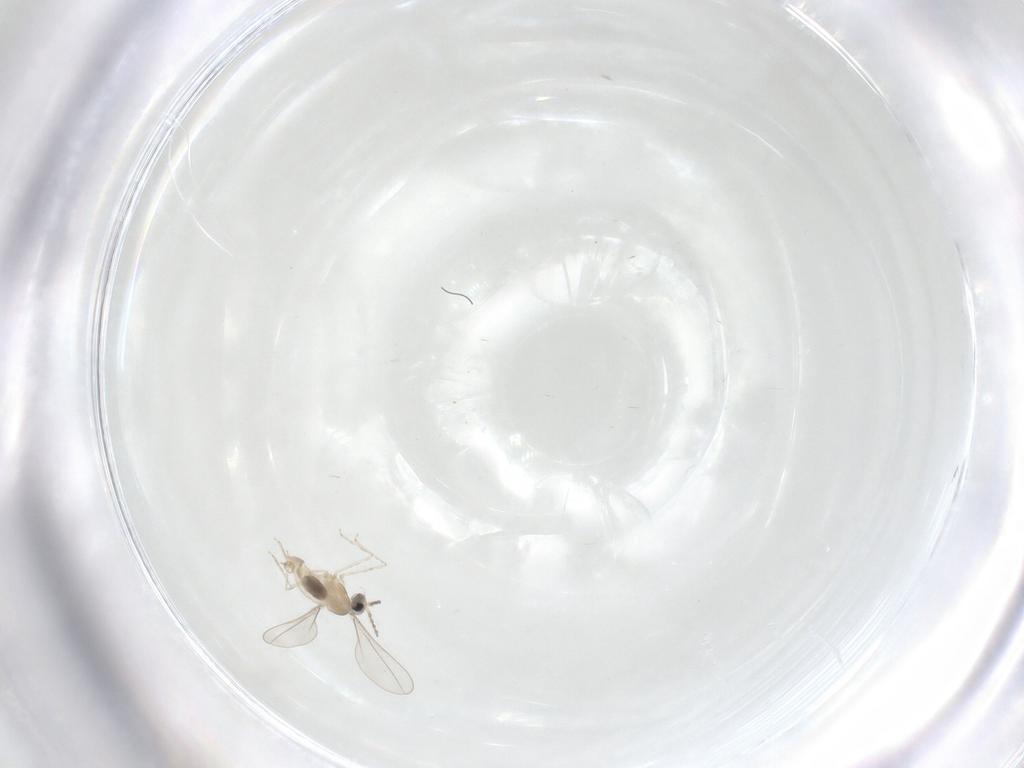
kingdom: Animalia
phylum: Arthropoda
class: Insecta
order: Diptera
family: Cecidomyiidae
